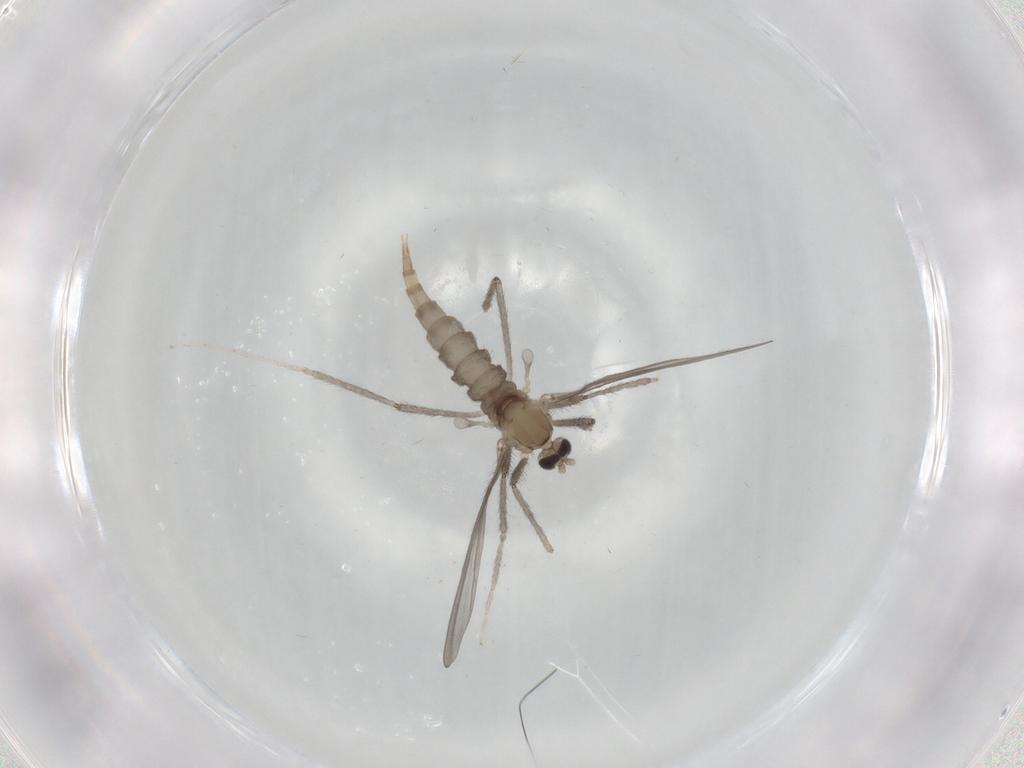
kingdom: Animalia
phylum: Arthropoda
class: Insecta
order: Diptera
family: Cecidomyiidae
